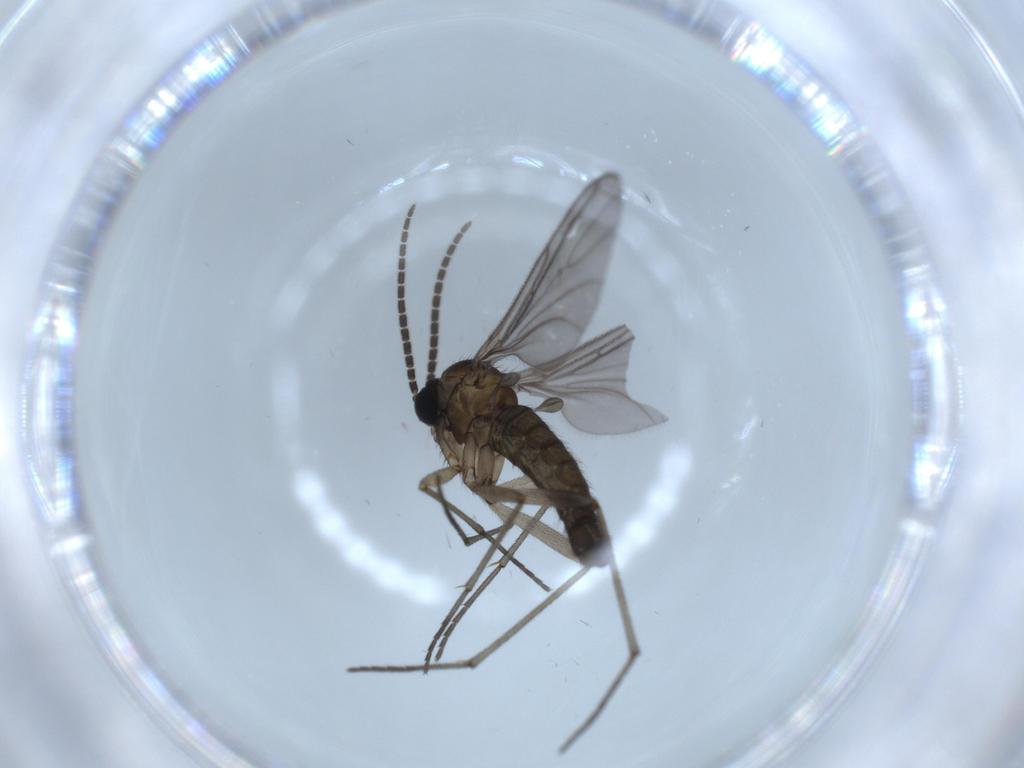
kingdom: Animalia
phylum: Arthropoda
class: Insecta
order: Diptera
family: Sciaridae
